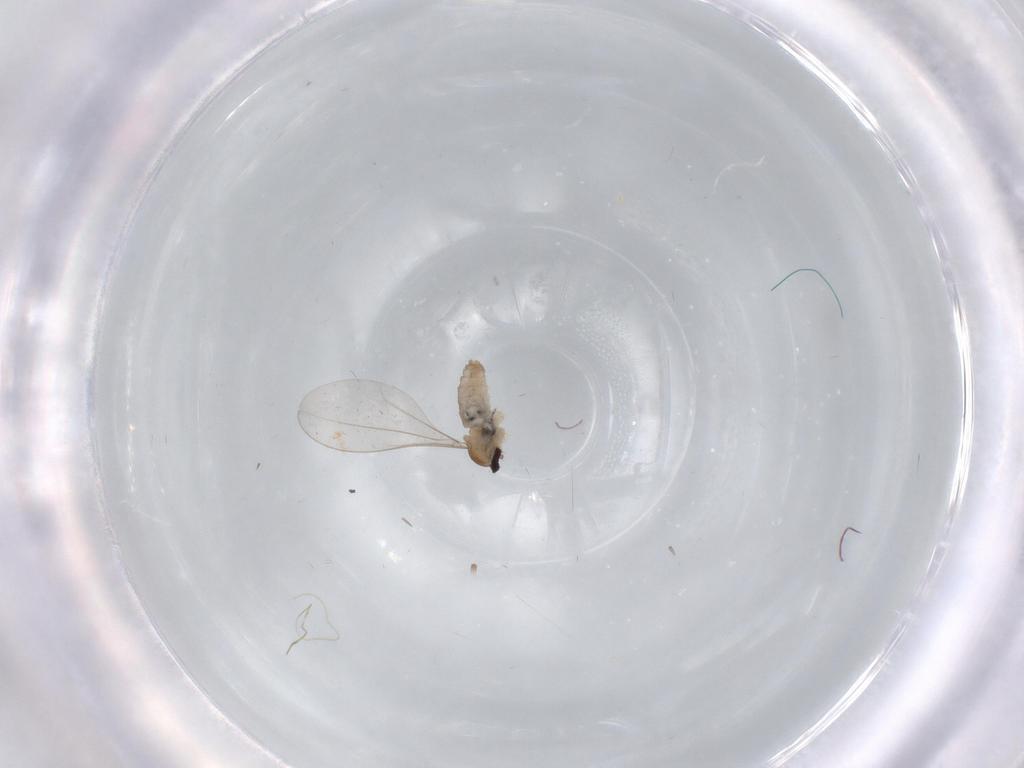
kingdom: Animalia
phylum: Arthropoda
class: Insecta
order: Diptera
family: Cecidomyiidae
